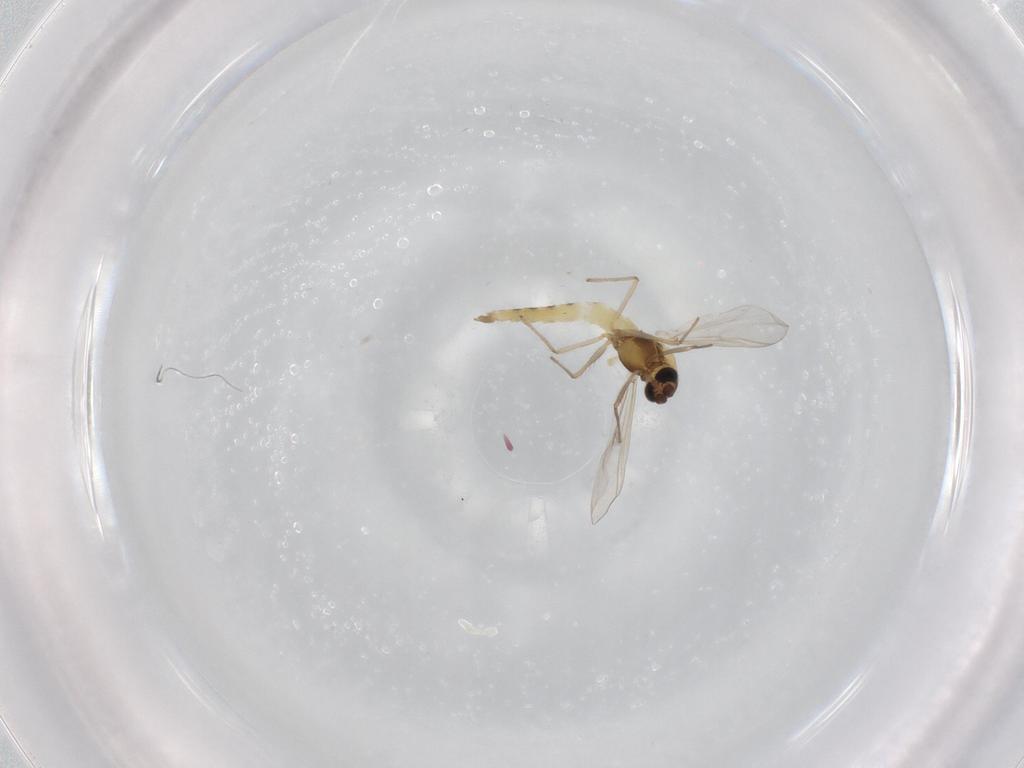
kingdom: Animalia
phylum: Arthropoda
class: Insecta
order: Diptera
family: Chironomidae
